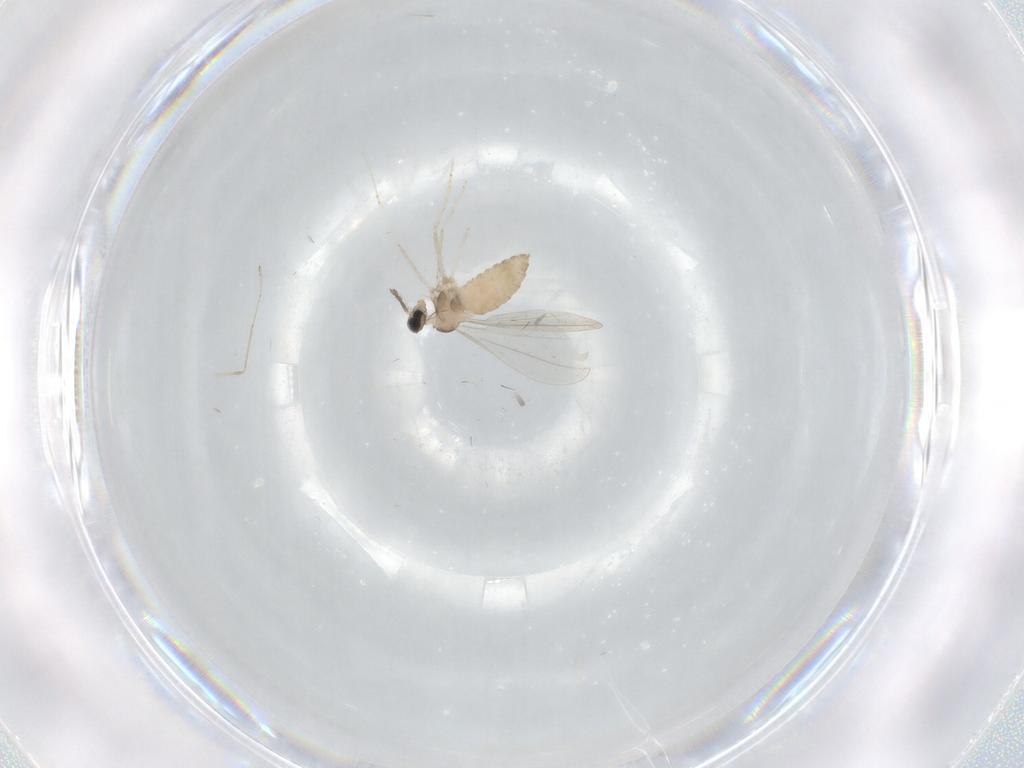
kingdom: Animalia
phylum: Arthropoda
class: Insecta
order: Diptera
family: Cecidomyiidae
